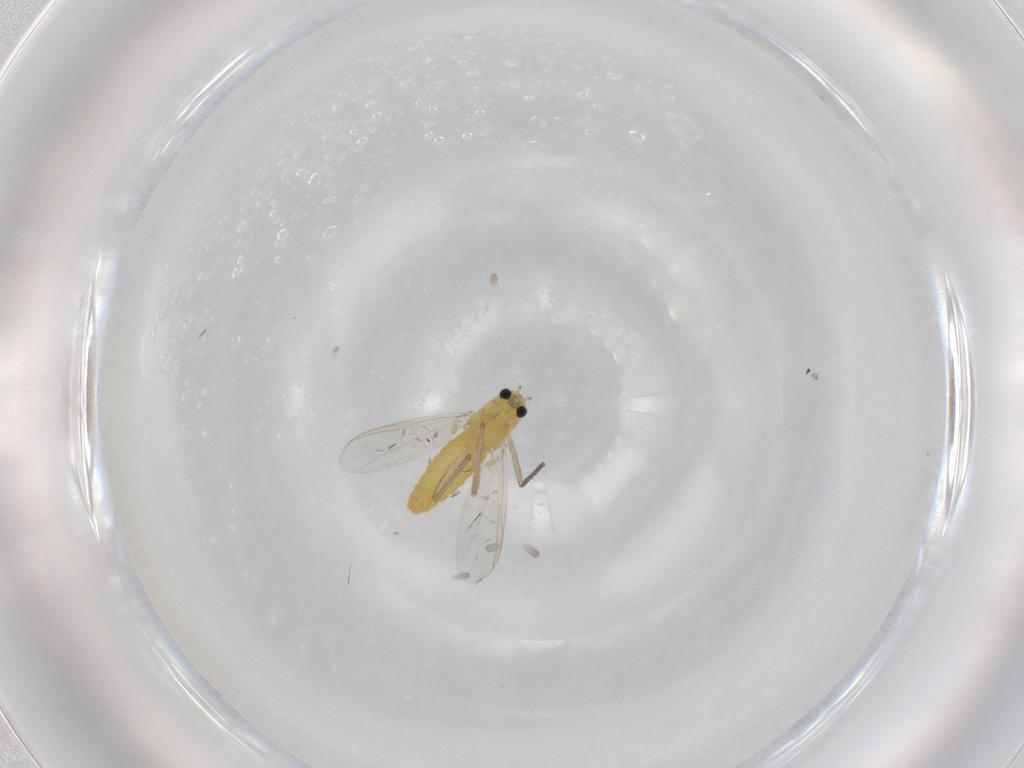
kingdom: Animalia
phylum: Arthropoda
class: Insecta
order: Diptera
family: Chironomidae
